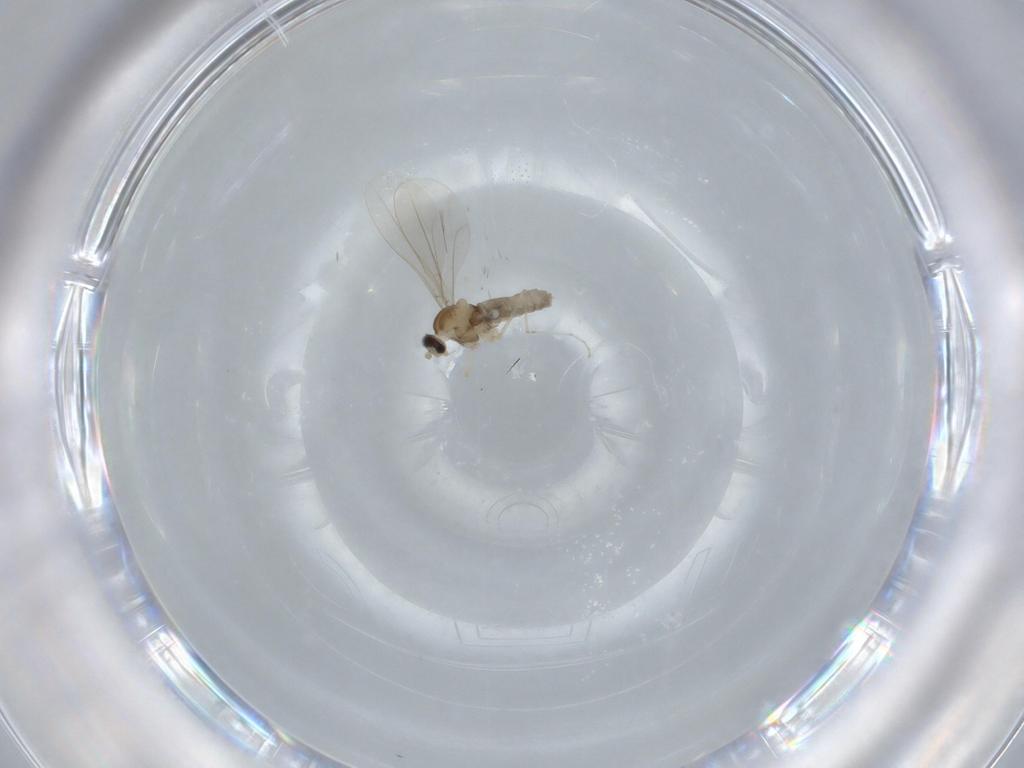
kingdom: Animalia
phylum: Arthropoda
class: Insecta
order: Diptera
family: Cecidomyiidae
